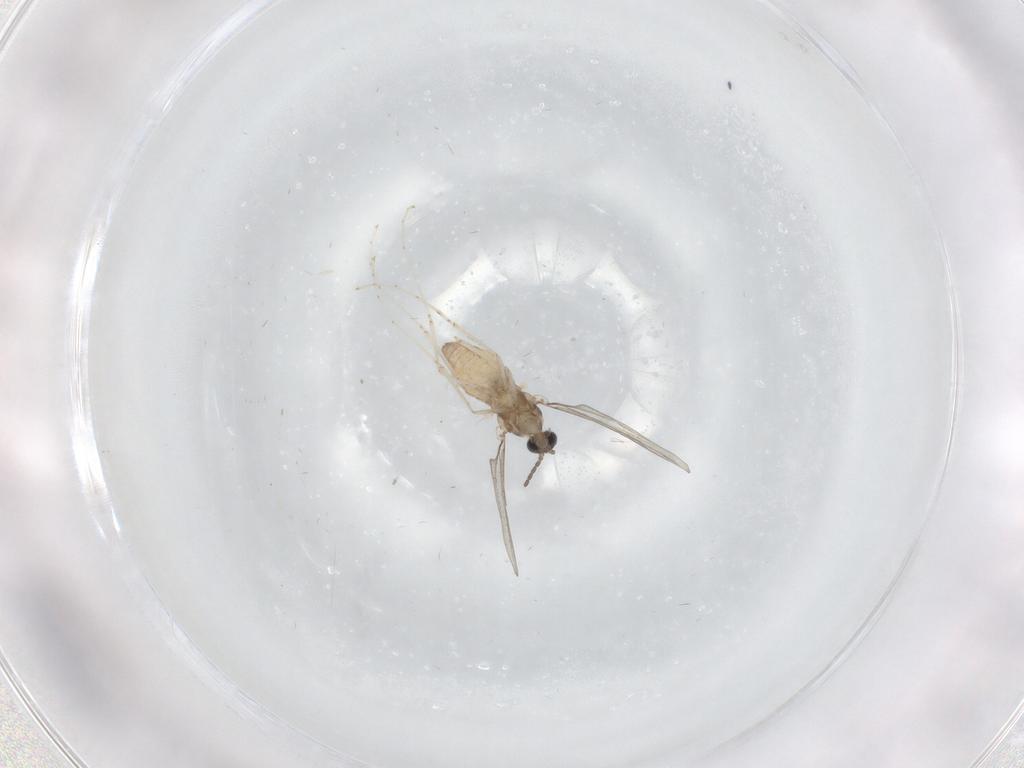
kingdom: Animalia
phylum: Arthropoda
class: Insecta
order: Diptera
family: Cecidomyiidae
